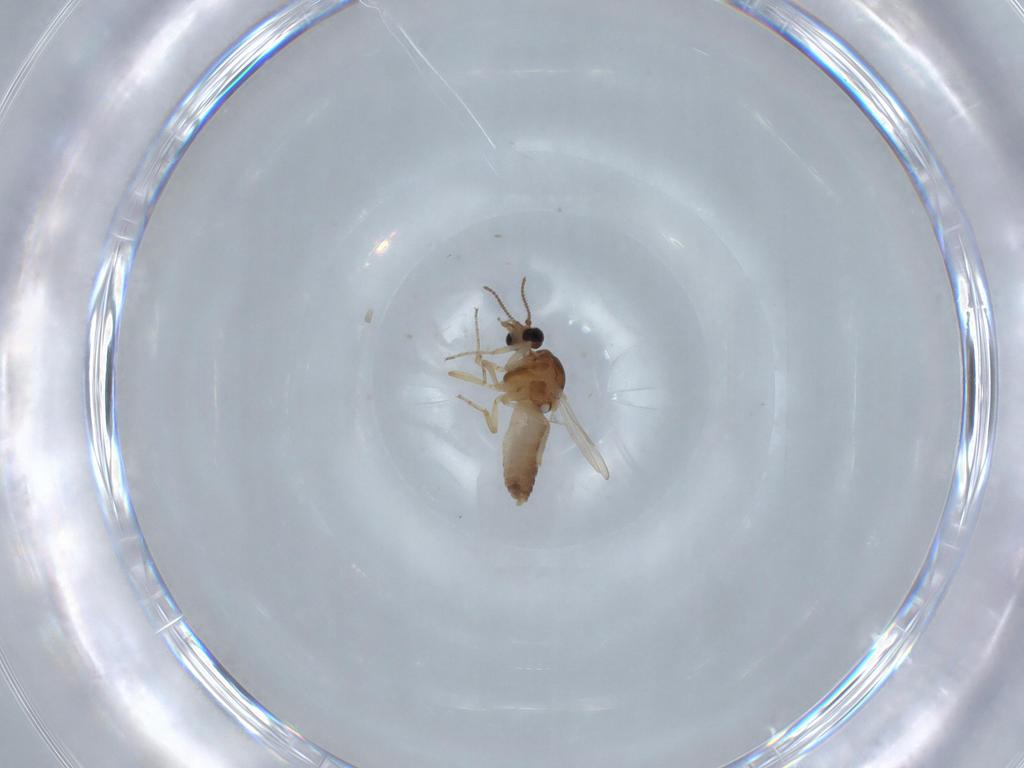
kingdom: Animalia
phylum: Arthropoda
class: Insecta
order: Diptera
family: Ceratopogonidae
